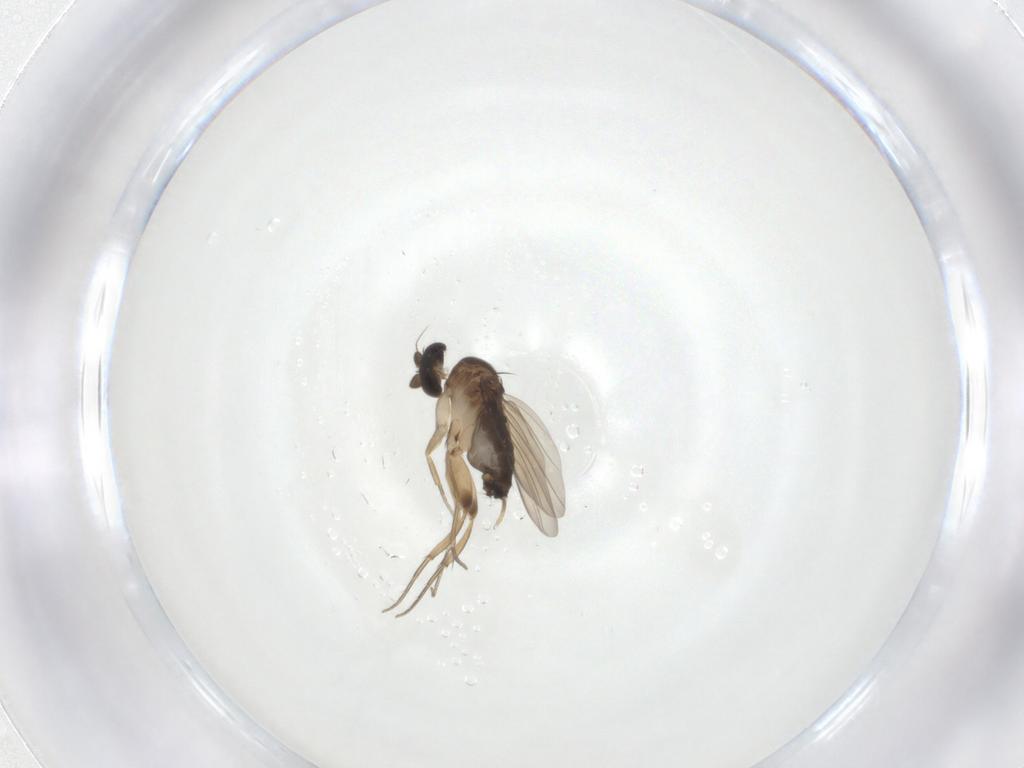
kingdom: Animalia
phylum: Arthropoda
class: Insecta
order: Diptera
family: Phoridae
